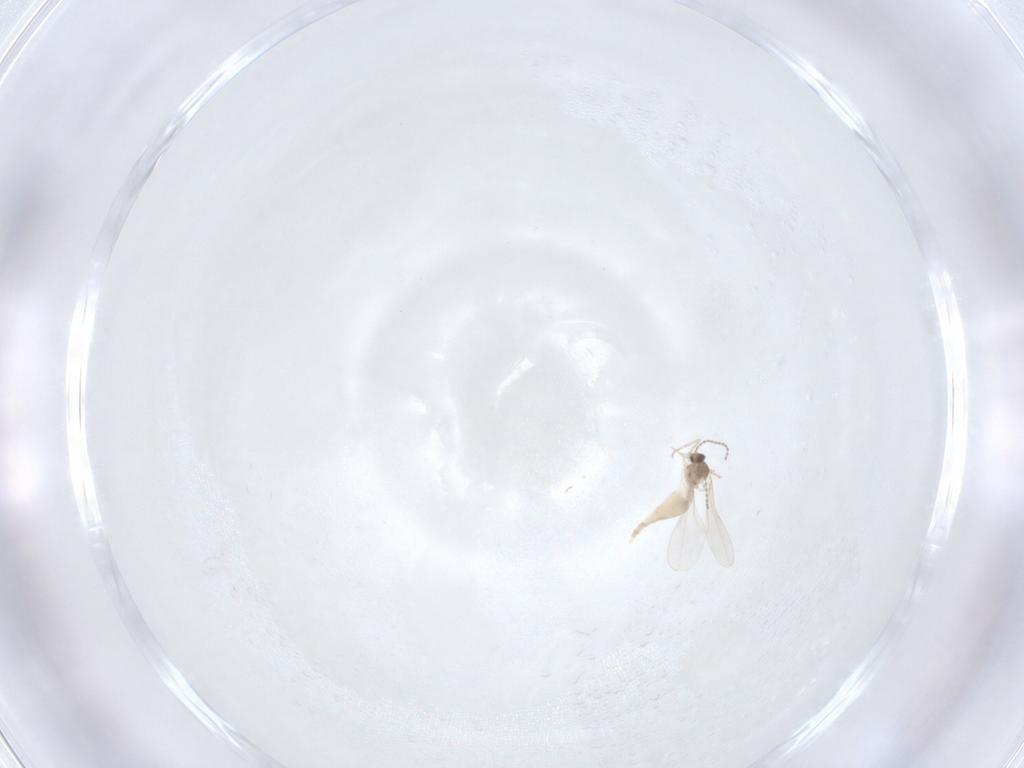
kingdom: Animalia
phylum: Arthropoda
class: Insecta
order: Diptera
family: Cecidomyiidae
